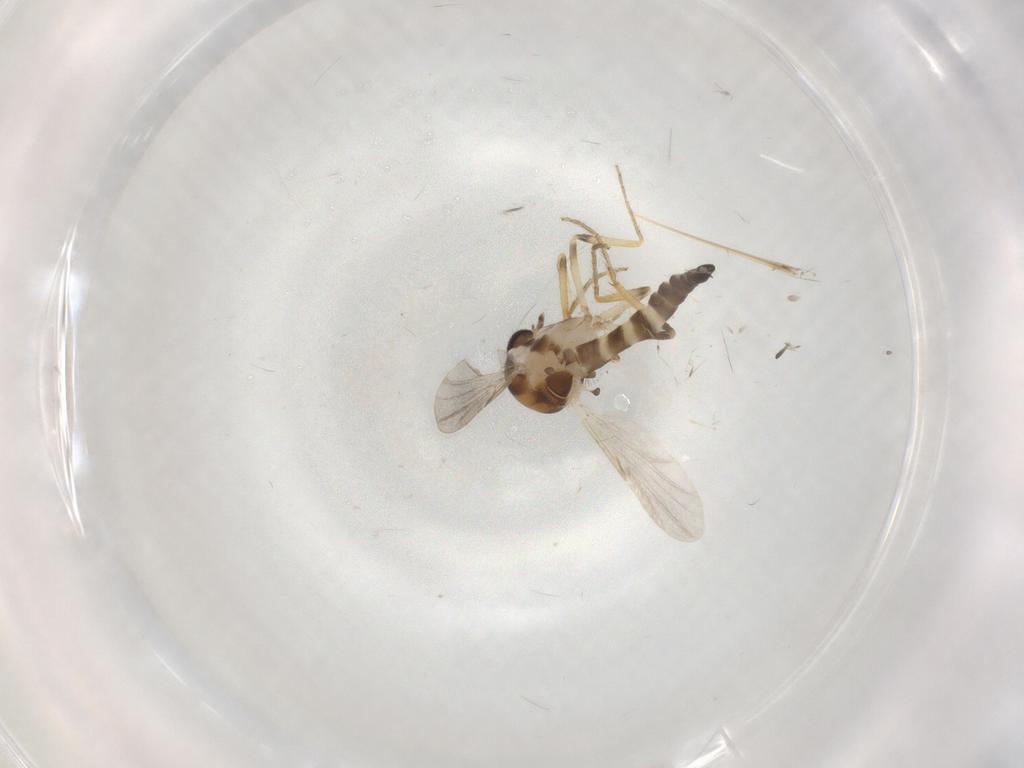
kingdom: Animalia
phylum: Arthropoda
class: Insecta
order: Diptera
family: Ceratopogonidae
